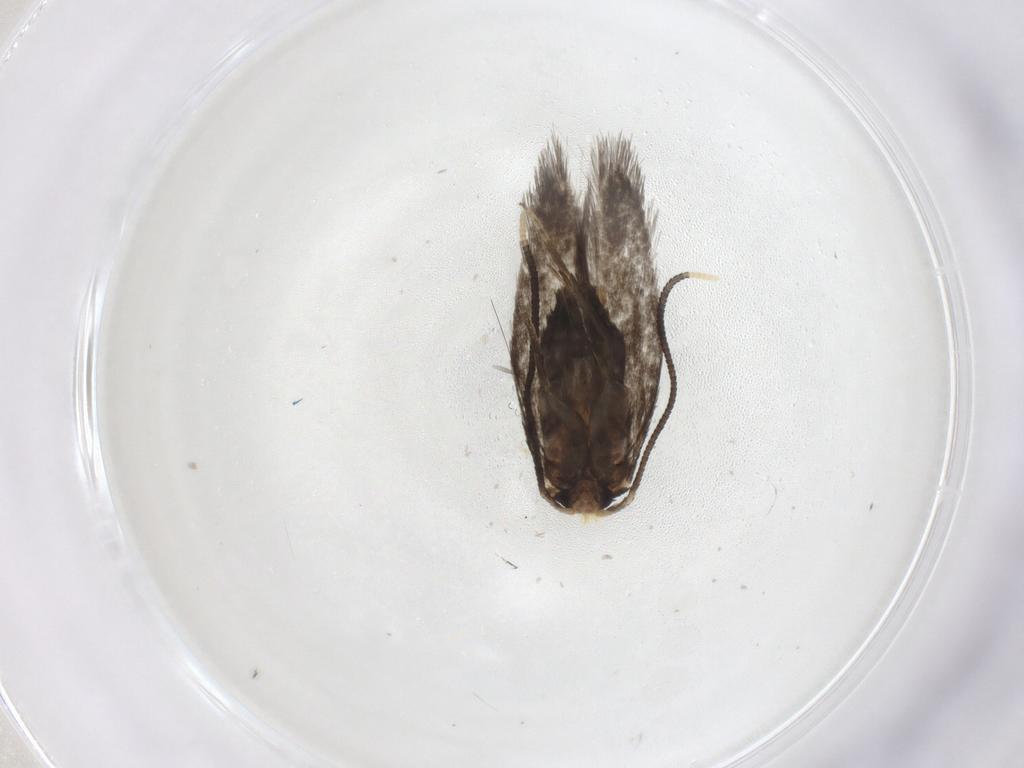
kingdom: Animalia
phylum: Arthropoda
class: Insecta
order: Lepidoptera
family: Nepticulidae
